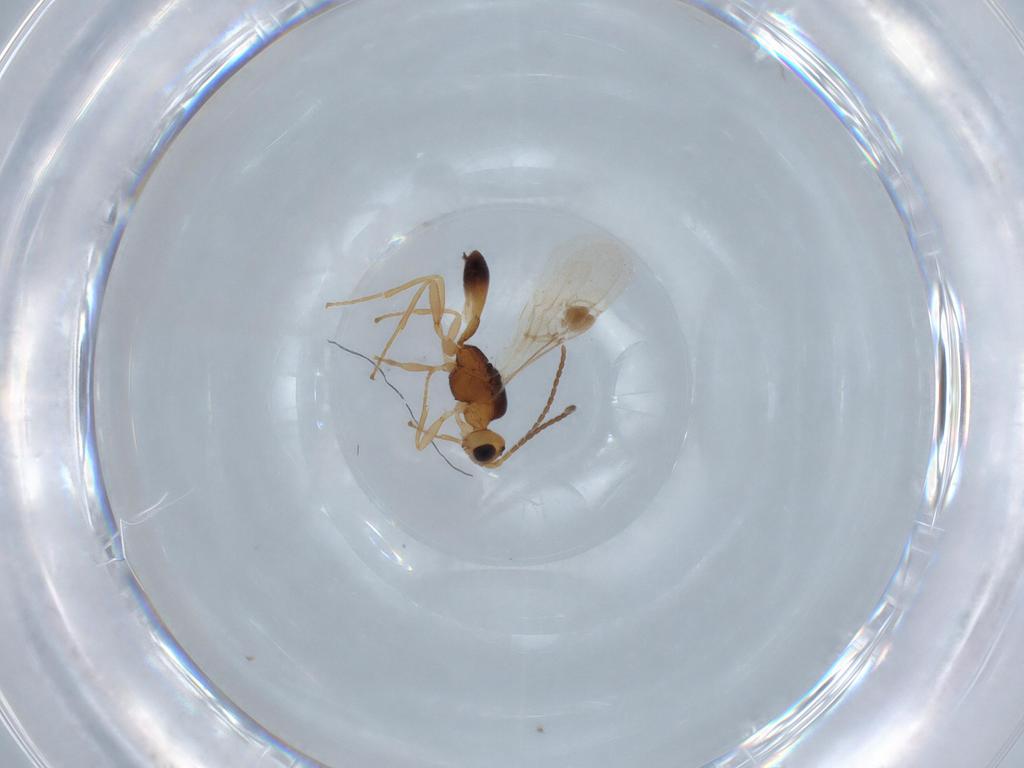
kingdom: Animalia
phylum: Arthropoda
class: Insecta
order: Hymenoptera
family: Braconidae
